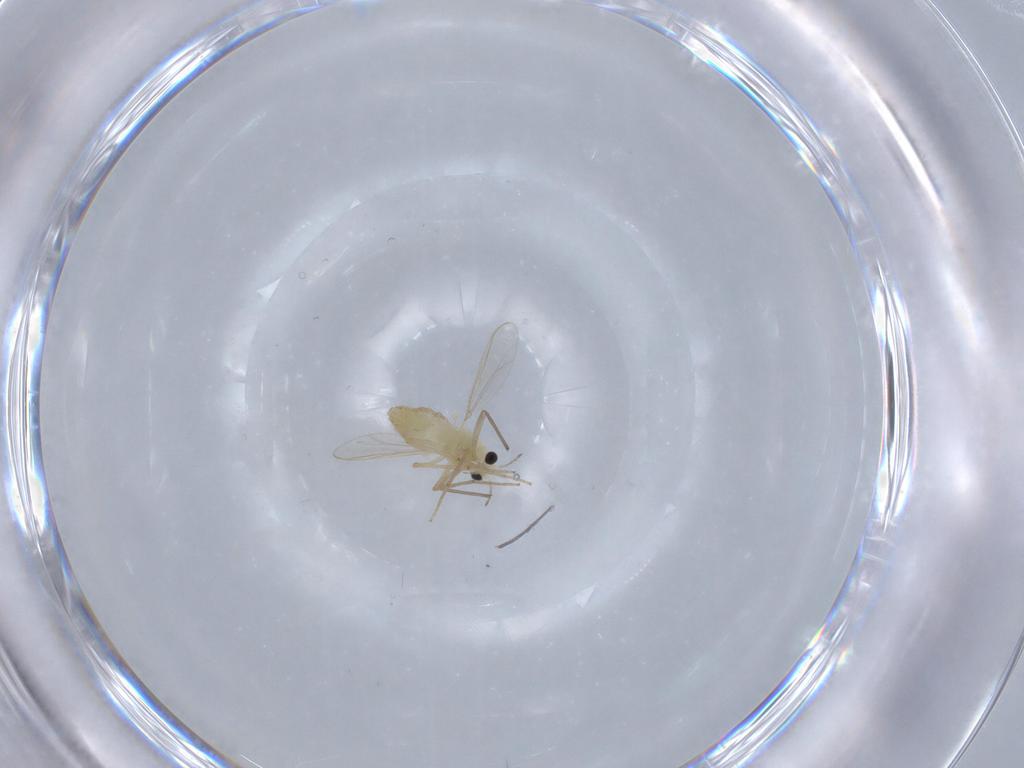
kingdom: Animalia
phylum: Arthropoda
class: Insecta
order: Diptera
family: Chironomidae
